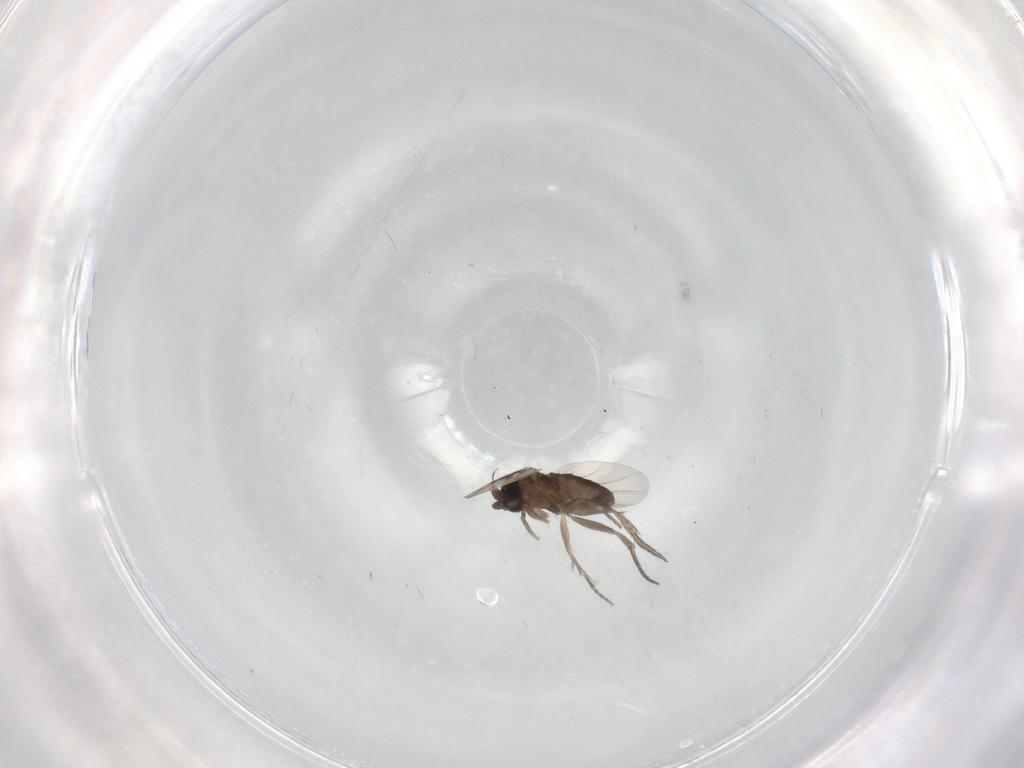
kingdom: Animalia
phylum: Arthropoda
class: Insecta
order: Diptera
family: Phoridae
